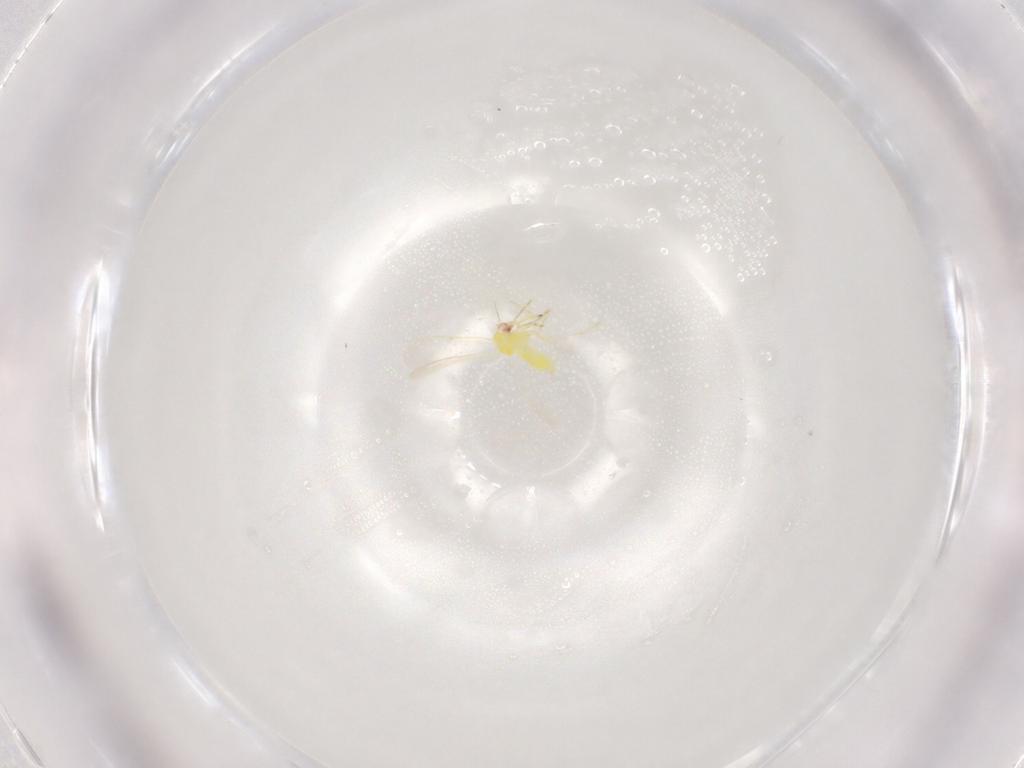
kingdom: Animalia
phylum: Arthropoda
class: Insecta
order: Hemiptera
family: Aleyrodidae
